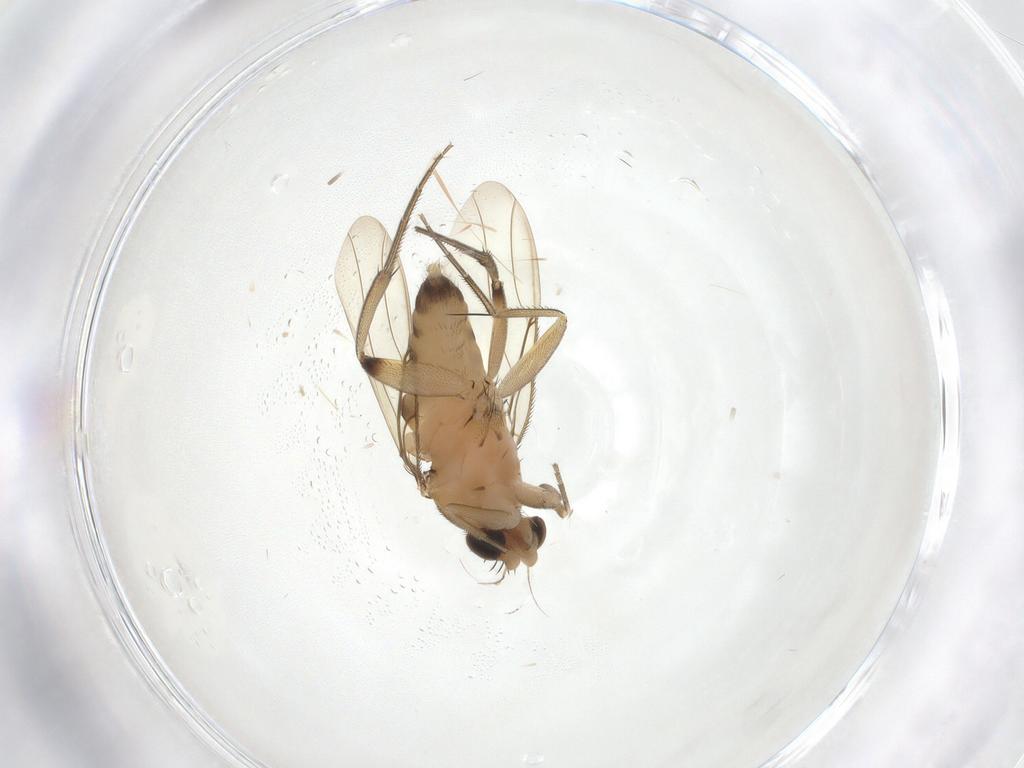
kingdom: Animalia
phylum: Arthropoda
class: Insecta
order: Diptera
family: Phoridae
